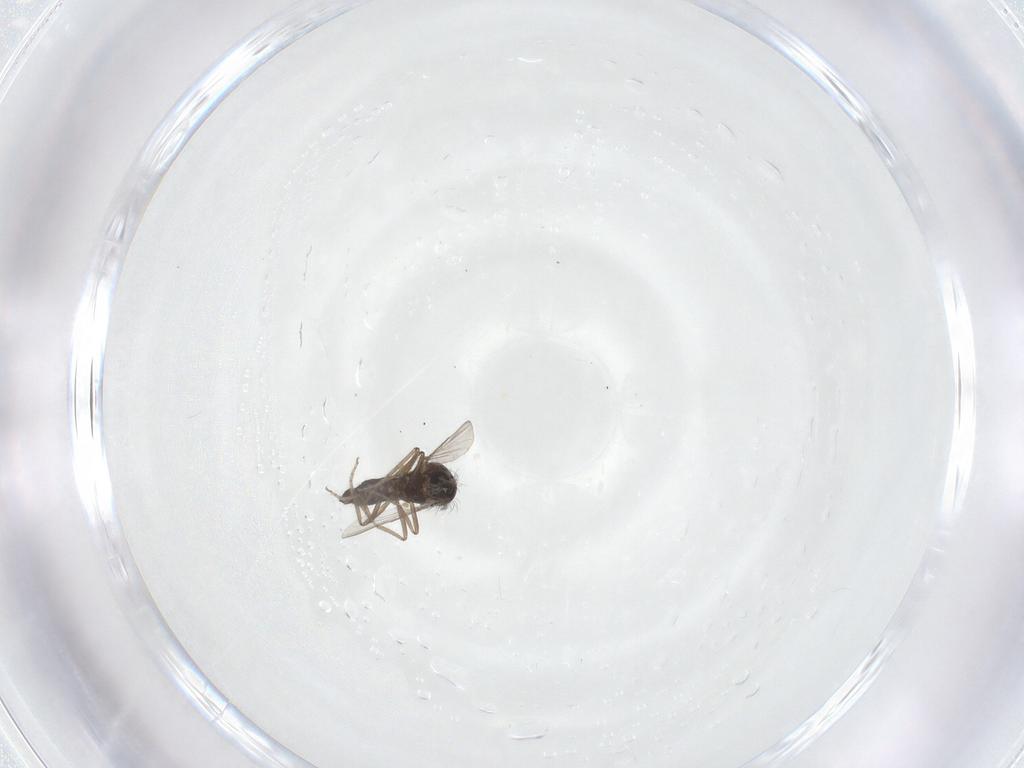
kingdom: Animalia
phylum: Arthropoda
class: Insecta
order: Diptera
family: Ceratopogonidae
